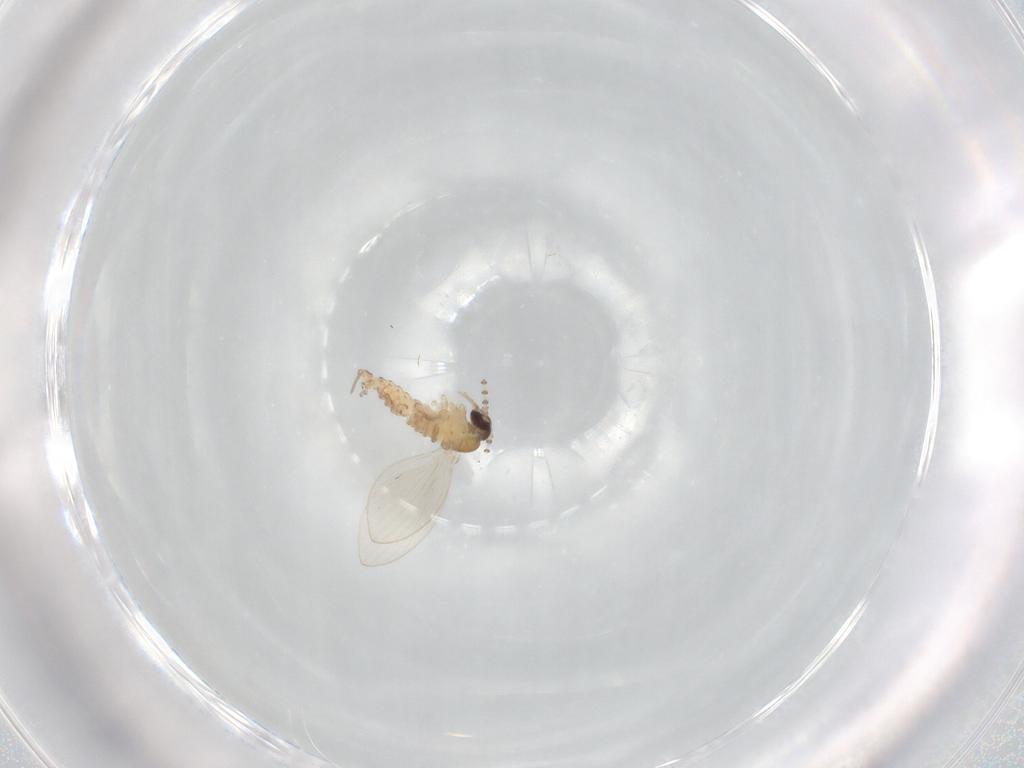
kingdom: Animalia
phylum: Arthropoda
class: Insecta
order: Diptera
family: Psychodidae
